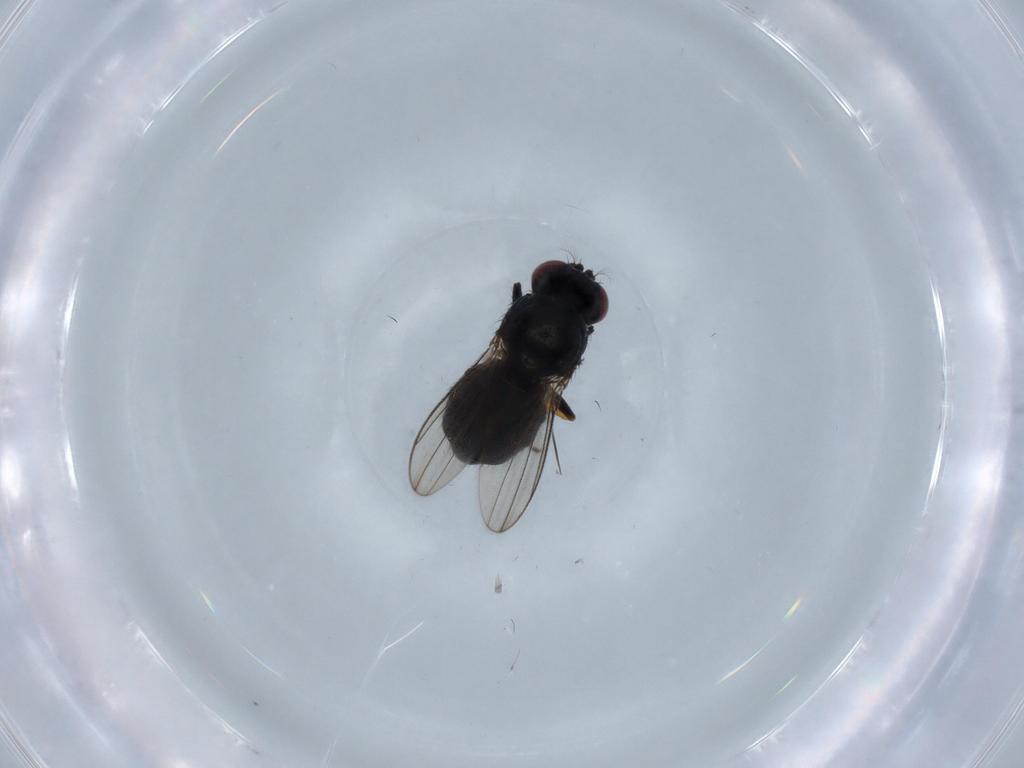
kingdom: Animalia
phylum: Arthropoda
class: Insecta
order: Diptera
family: Ephydridae
